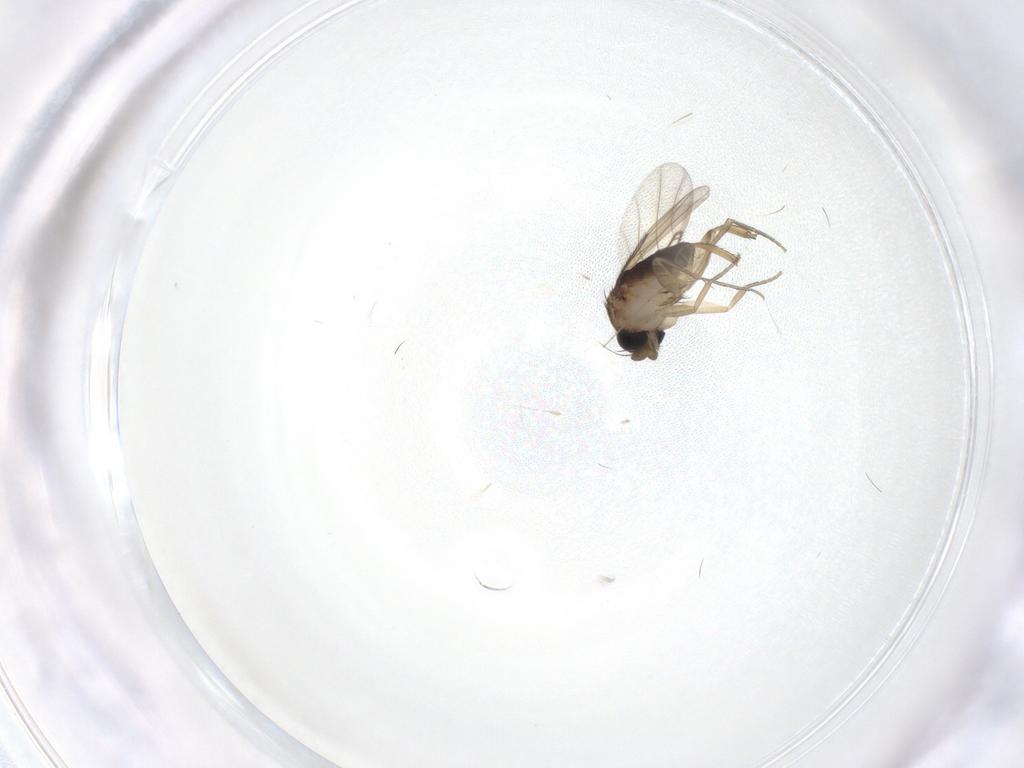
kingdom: Animalia
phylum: Arthropoda
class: Insecta
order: Diptera
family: Phoridae
